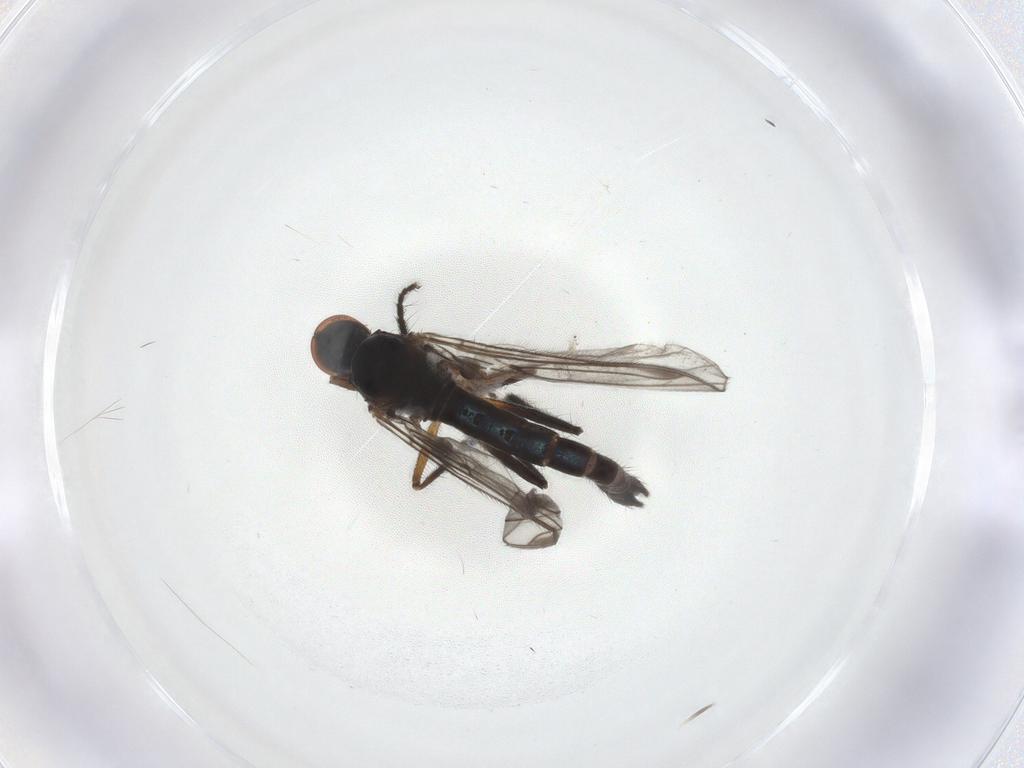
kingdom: Animalia
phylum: Arthropoda
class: Insecta
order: Diptera
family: Empididae
